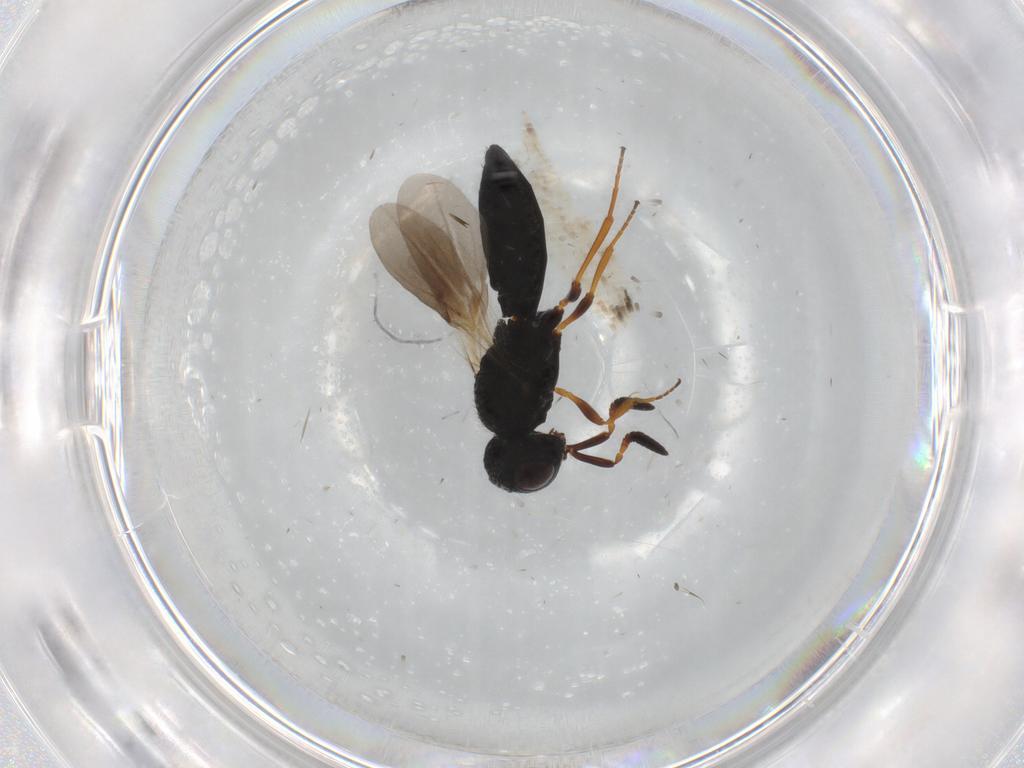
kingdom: Animalia
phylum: Arthropoda
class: Insecta
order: Hymenoptera
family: Scelionidae
